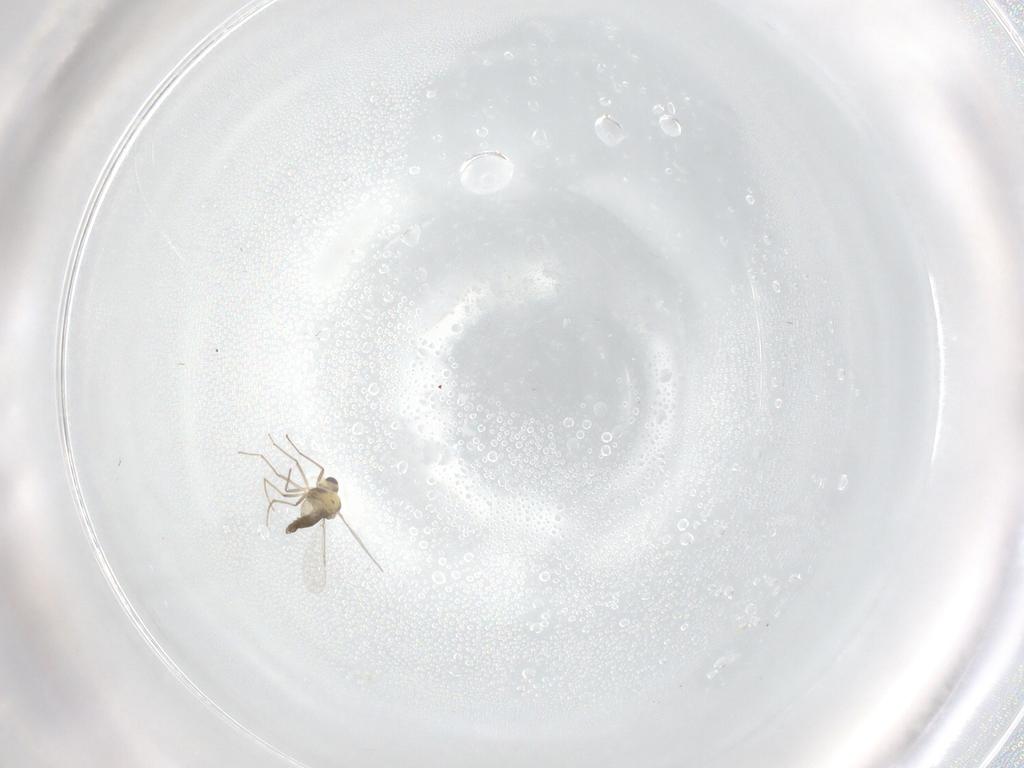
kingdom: Animalia
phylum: Arthropoda
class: Insecta
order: Diptera
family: Chironomidae
